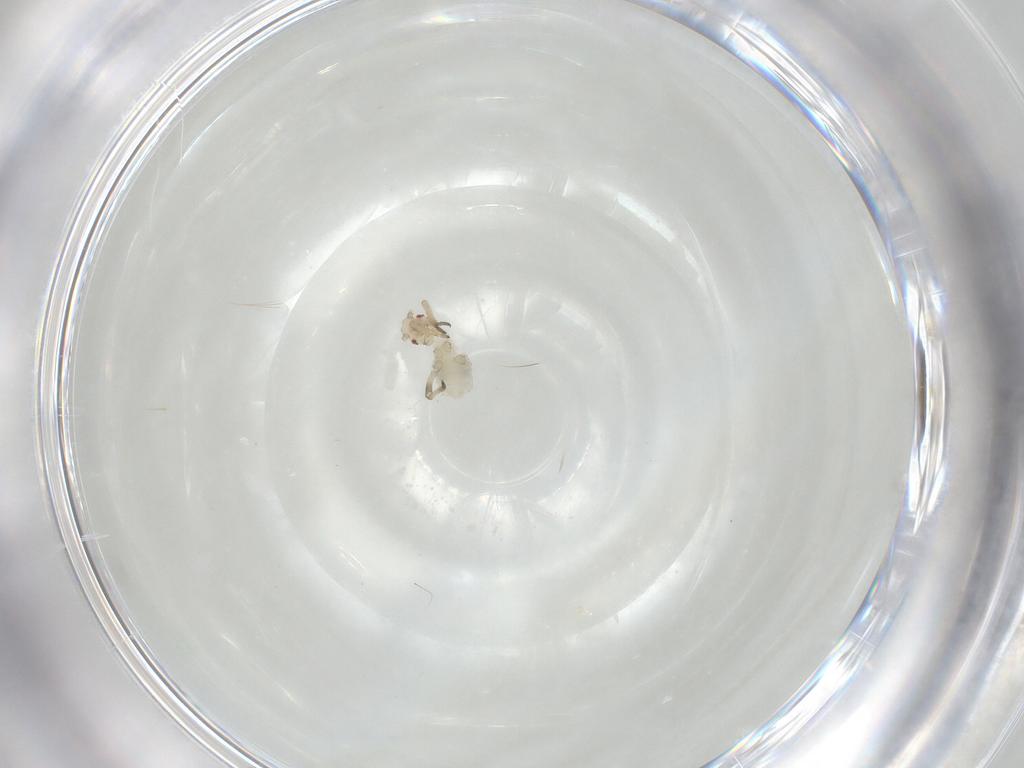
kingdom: Animalia
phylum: Arthropoda
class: Insecta
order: Hemiptera
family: Aphididae
